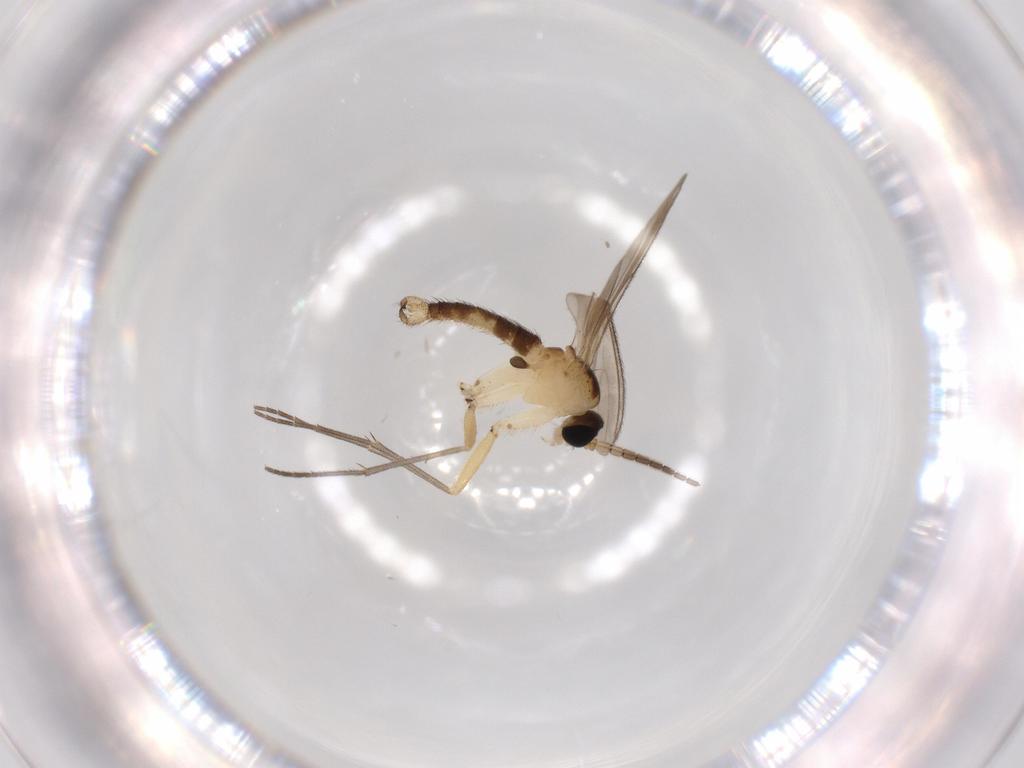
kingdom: Animalia
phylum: Arthropoda
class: Insecta
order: Diptera
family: Sciaridae
